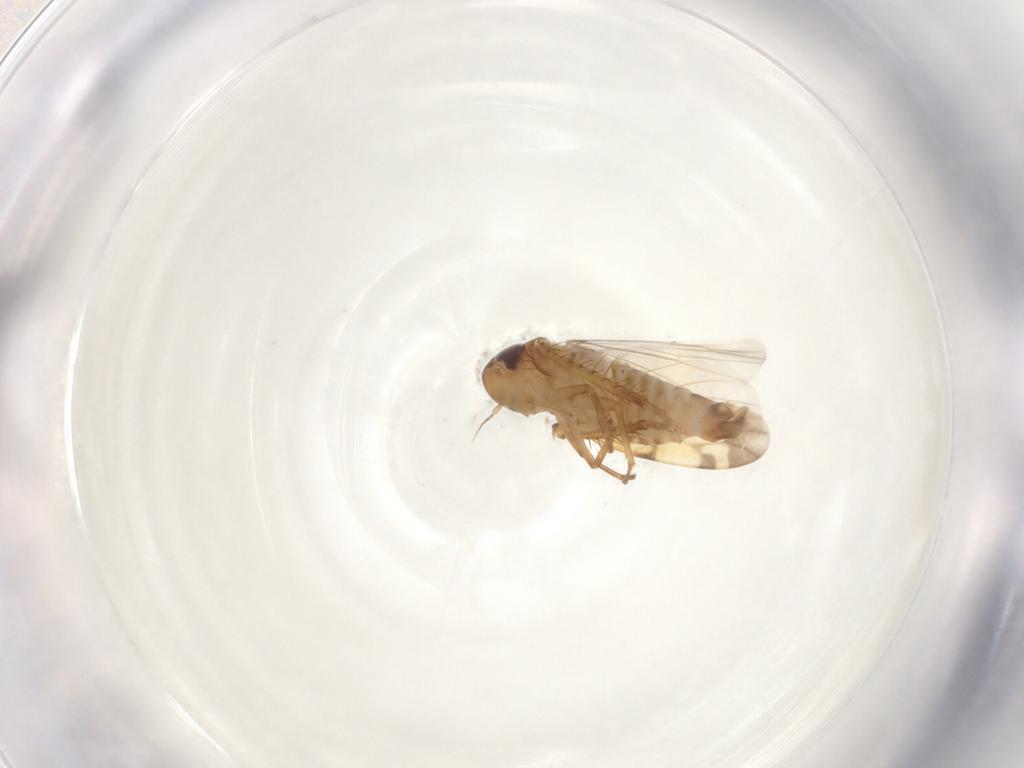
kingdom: Animalia
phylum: Arthropoda
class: Insecta
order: Hemiptera
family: Cicadellidae
